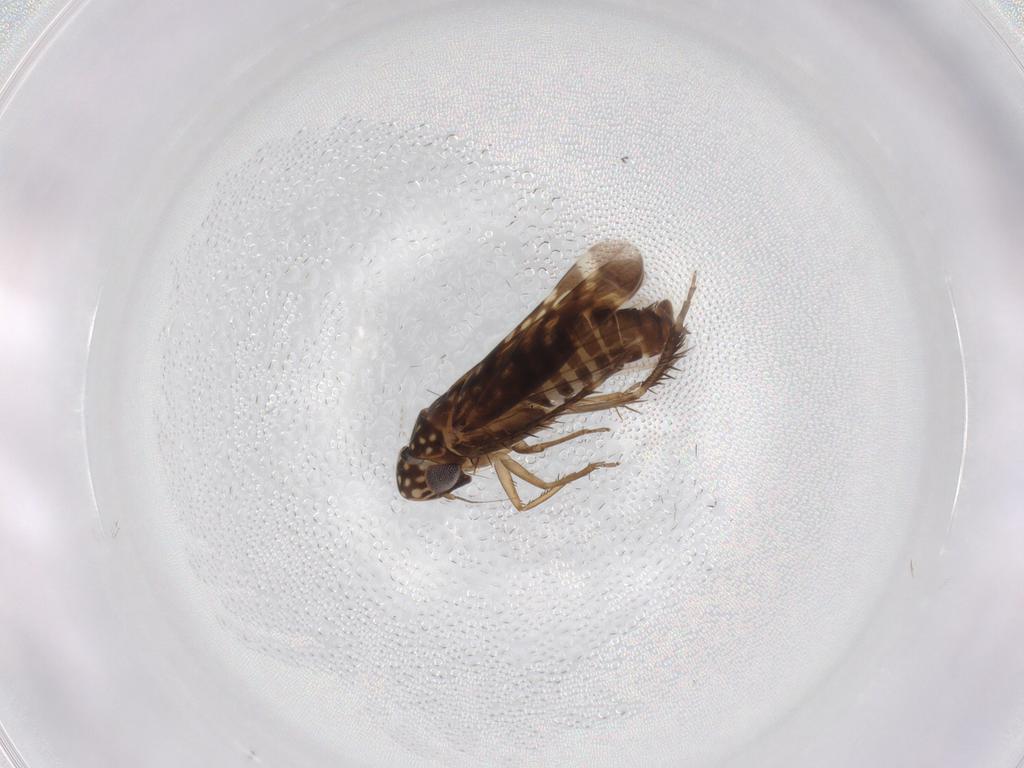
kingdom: Animalia
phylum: Arthropoda
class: Insecta
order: Hemiptera
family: Cicadellidae
